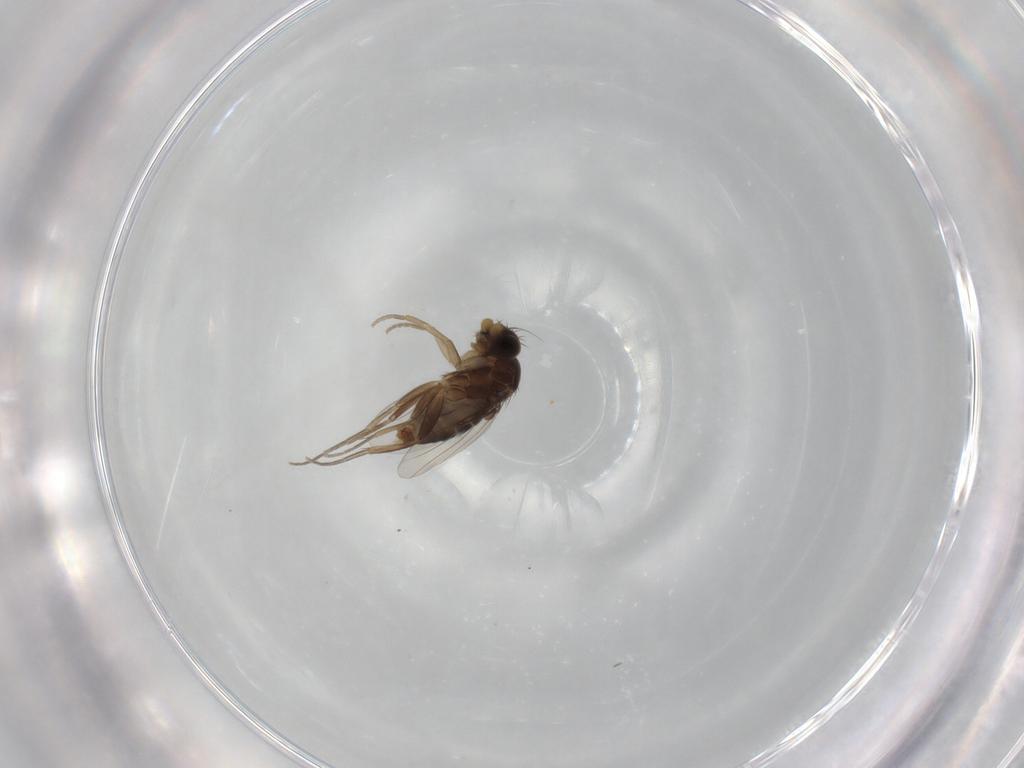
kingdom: Animalia
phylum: Arthropoda
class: Insecta
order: Diptera
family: Phoridae
